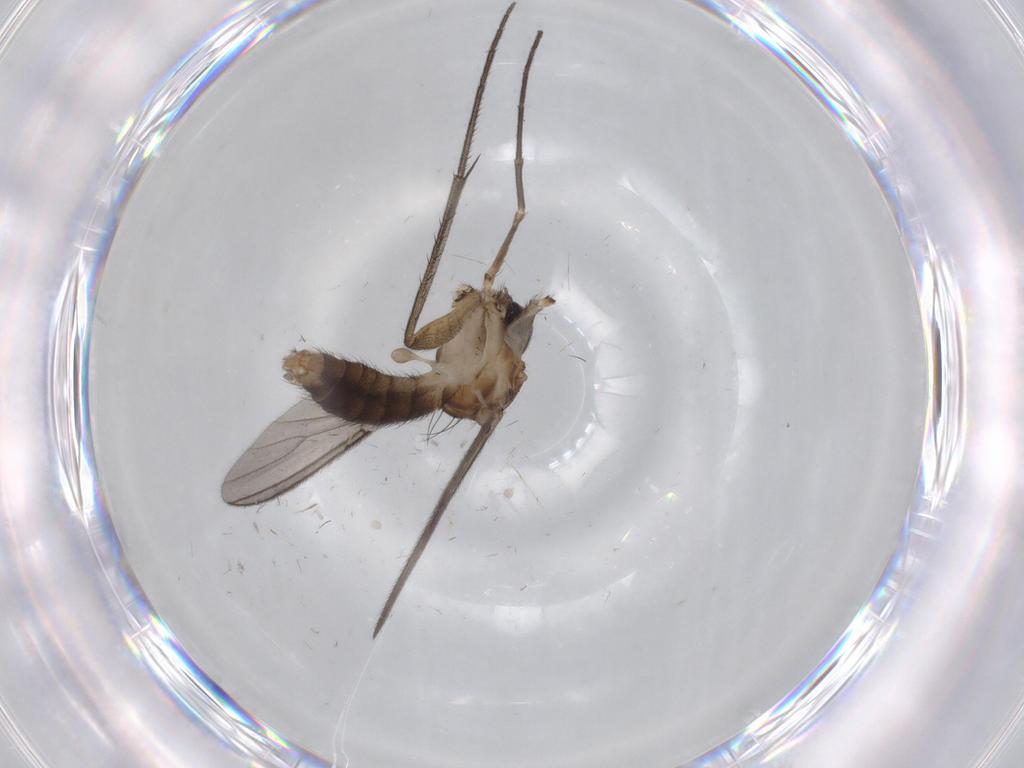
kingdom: Animalia
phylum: Arthropoda
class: Insecta
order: Diptera
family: Cecidomyiidae
